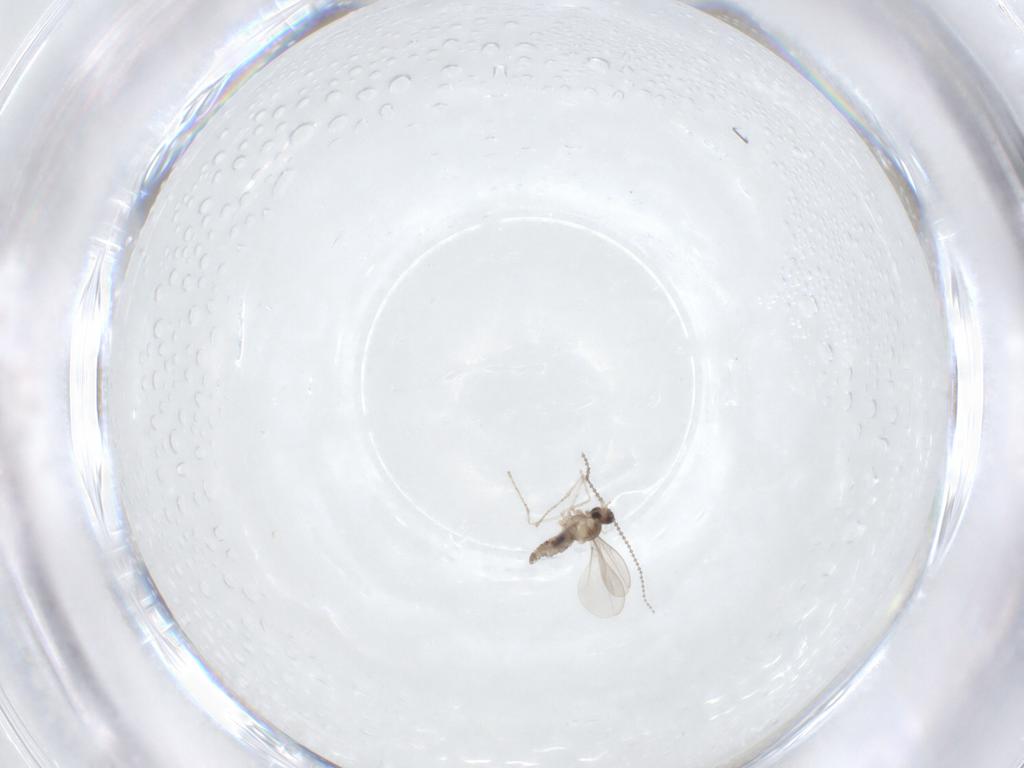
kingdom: Animalia
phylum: Arthropoda
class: Insecta
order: Diptera
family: Cecidomyiidae
